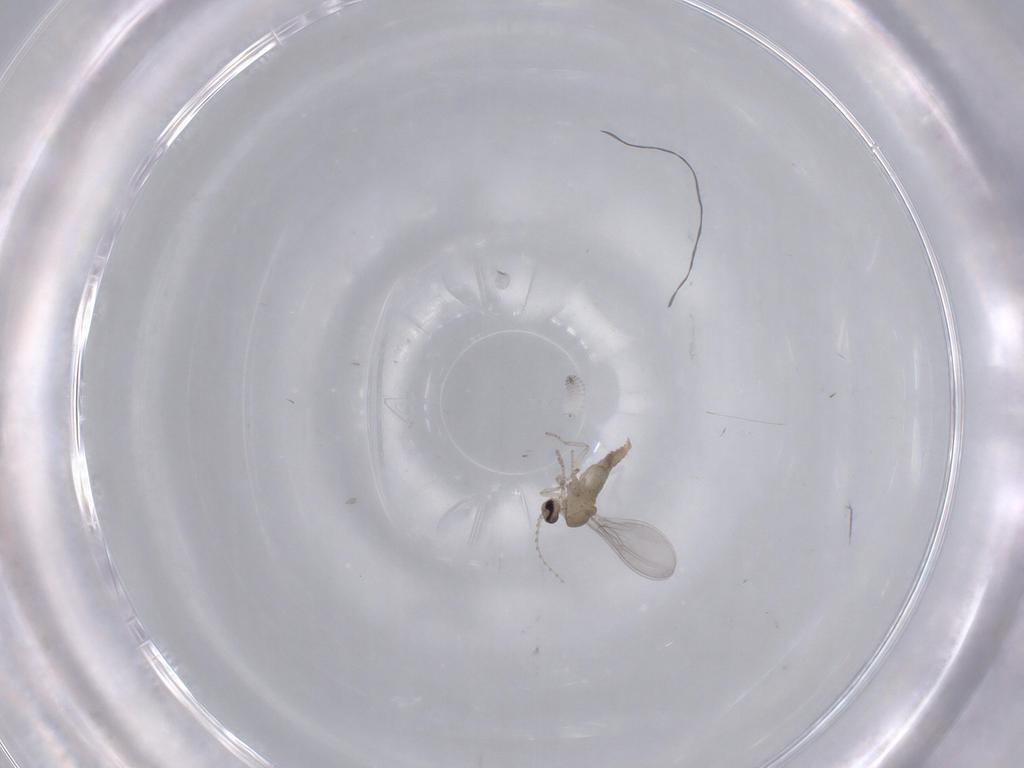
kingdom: Animalia
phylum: Arthropoda
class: Insecta
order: Diptera
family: Cecidomyiidae
